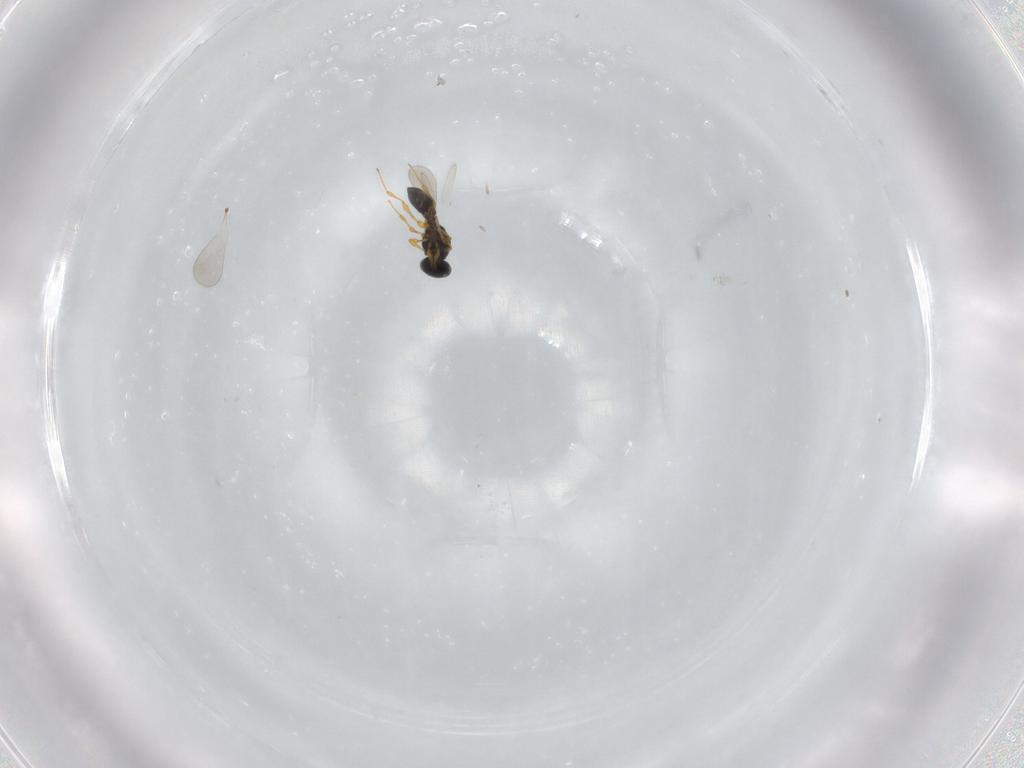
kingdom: Animalia
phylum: Arthropoda
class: Insecta
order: Hymenoptera
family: Platygastridae
